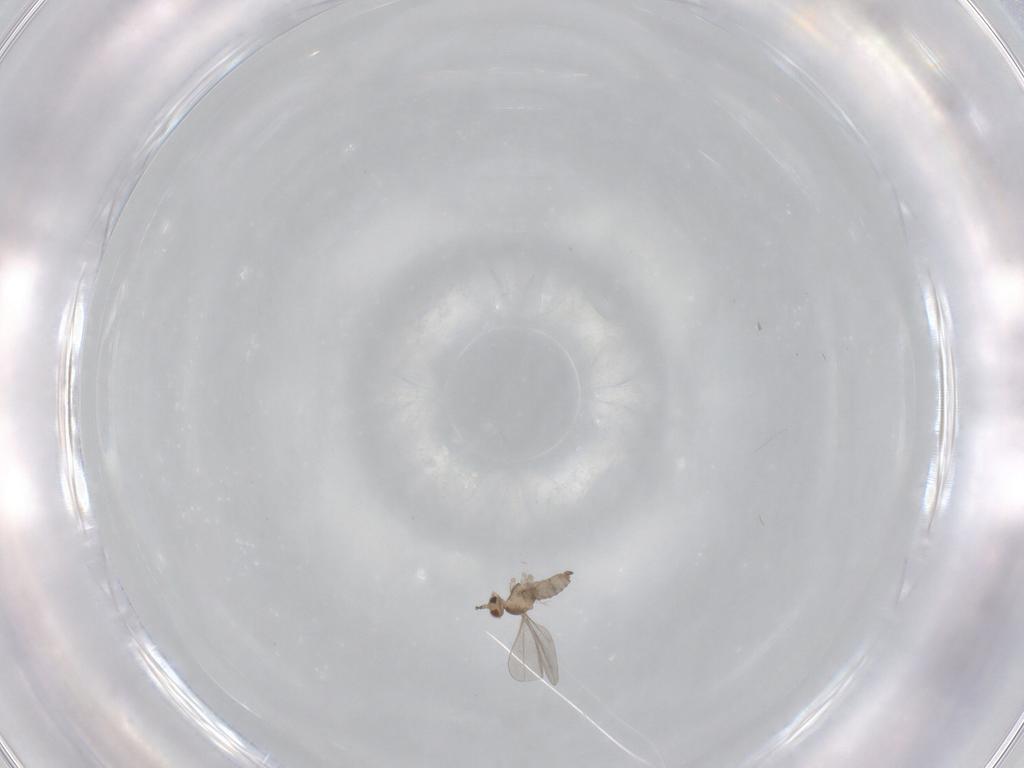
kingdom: Animalia
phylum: Arthropoda
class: Insecta
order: Diptera
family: Cecidomyiidae
